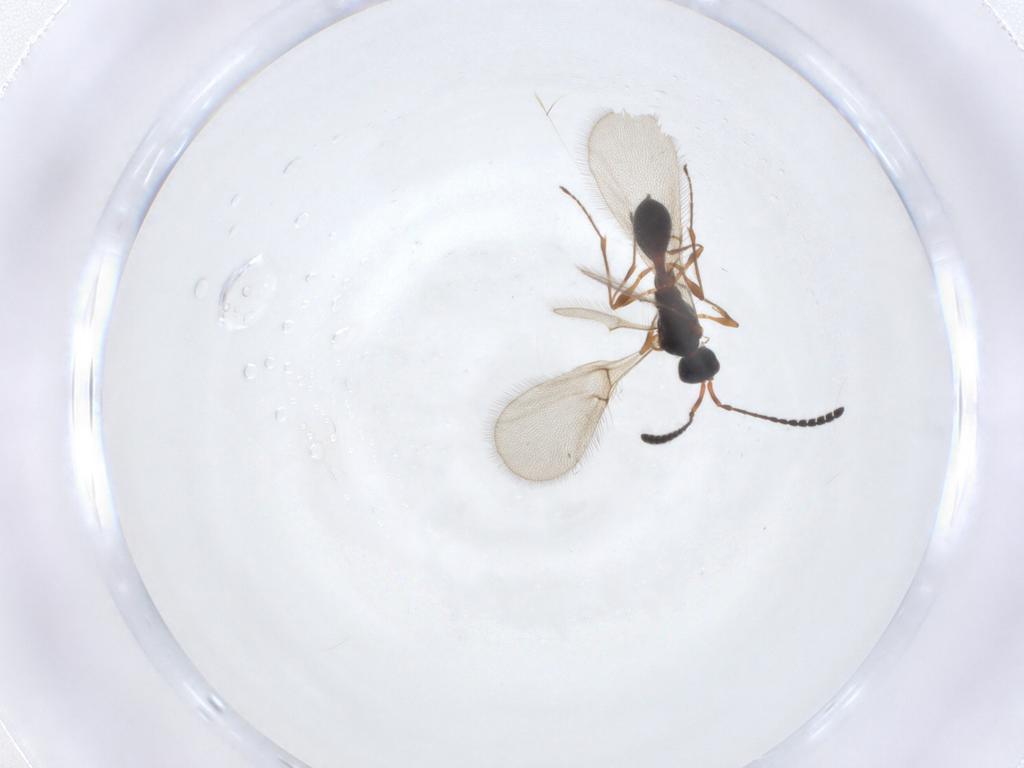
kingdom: Animalia
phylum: Arthropoda
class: Insecta
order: Hymenoptera
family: Diapriidae
